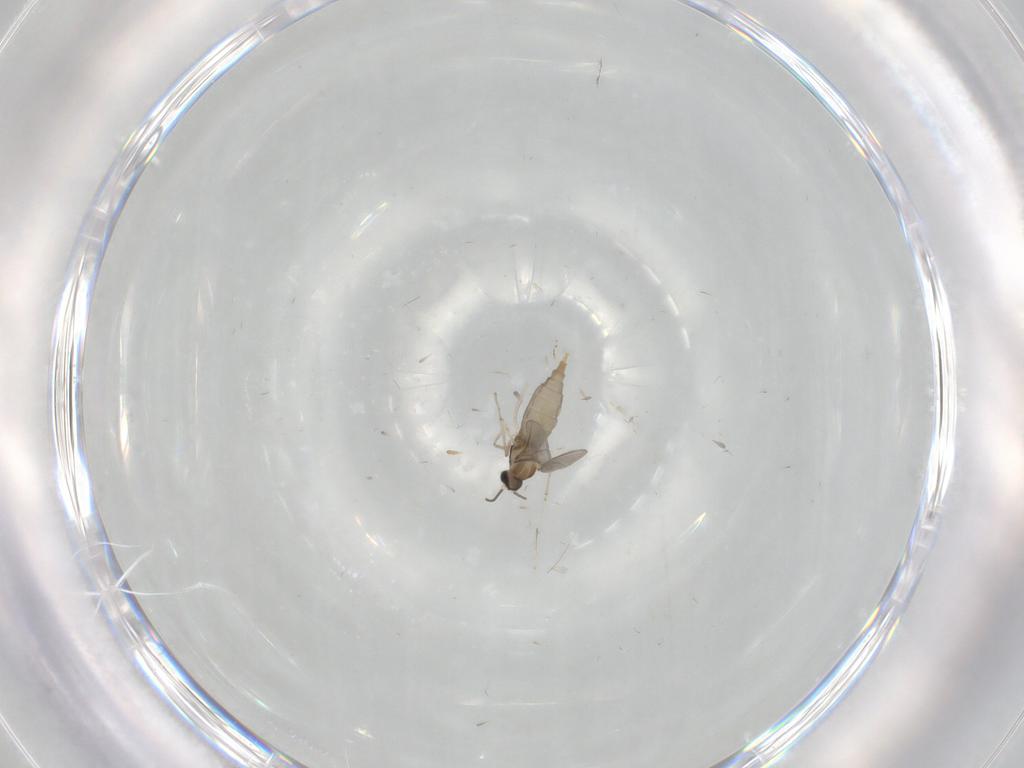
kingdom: Animalia
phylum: Arthropoda
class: Insecta
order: Diptera
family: Cecidomyiidae
